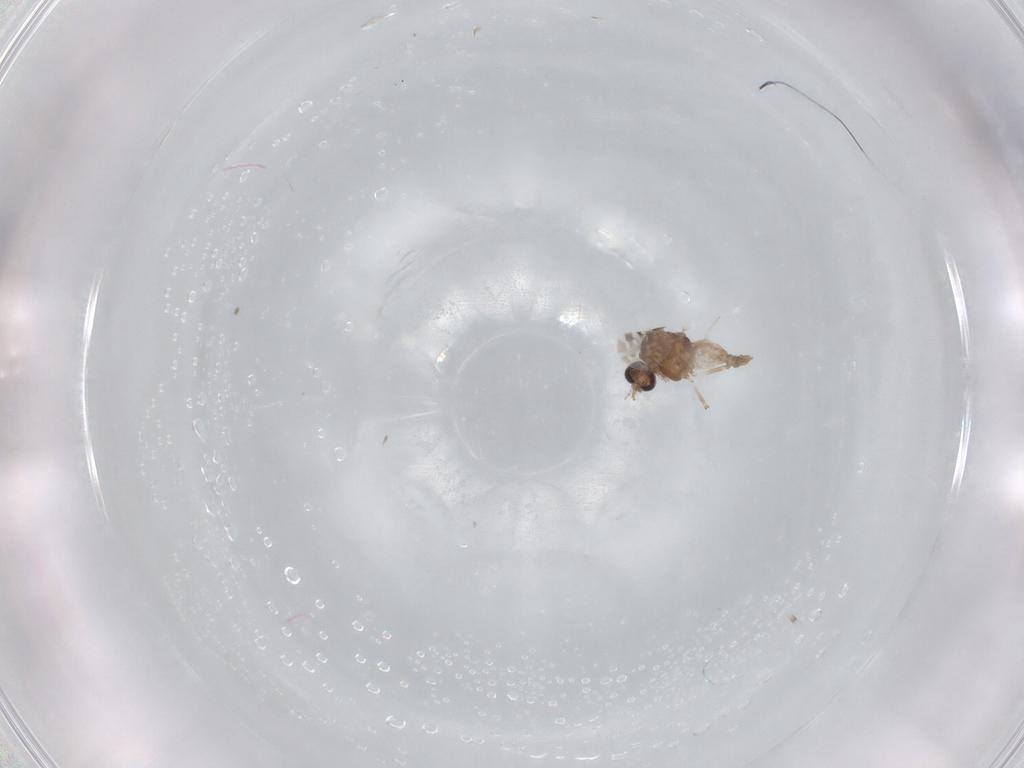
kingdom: Animalia
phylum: Arthropoda
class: Insecta
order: Diptera
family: Ceratopogonidae
